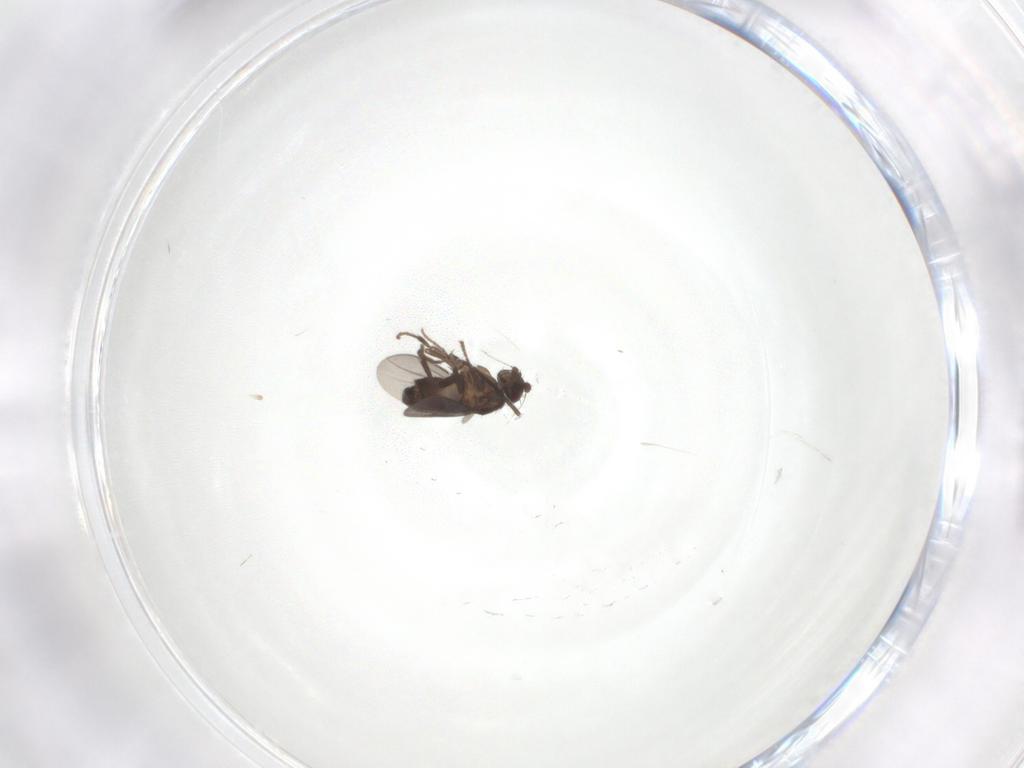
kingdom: Animalia
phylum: Arthropoda
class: Insecta
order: Diptera
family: Sphaeroceridae
